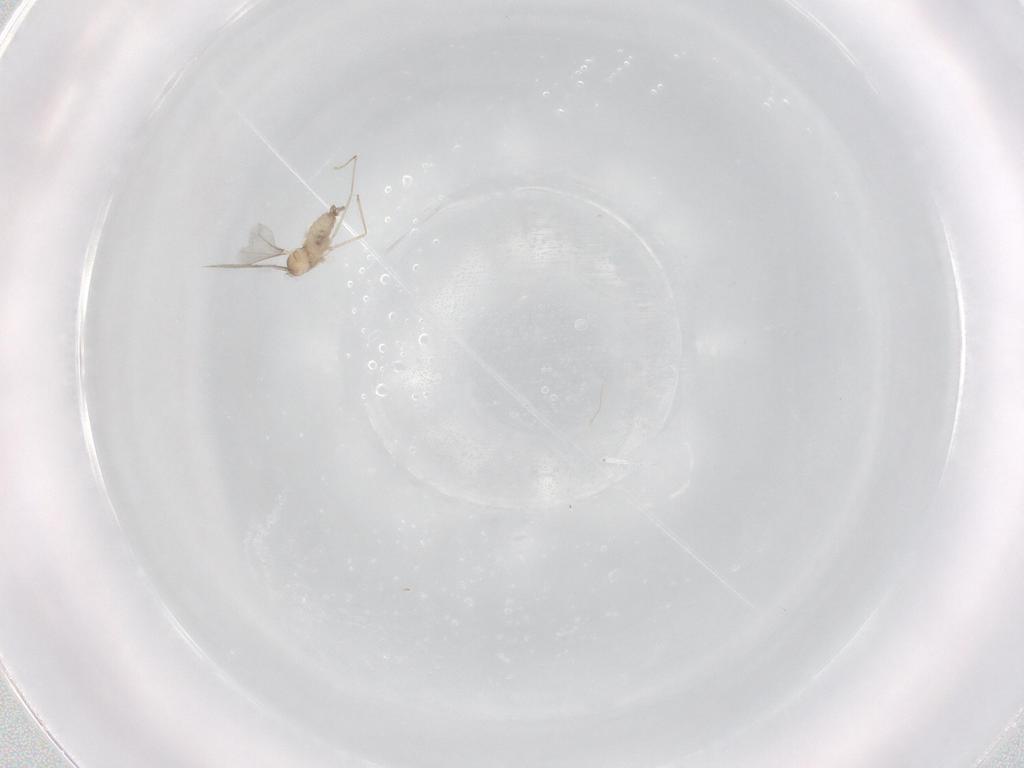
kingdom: Animalia
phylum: Arthropoda
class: Insecta
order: Diptera
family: Cecidomyiidae
